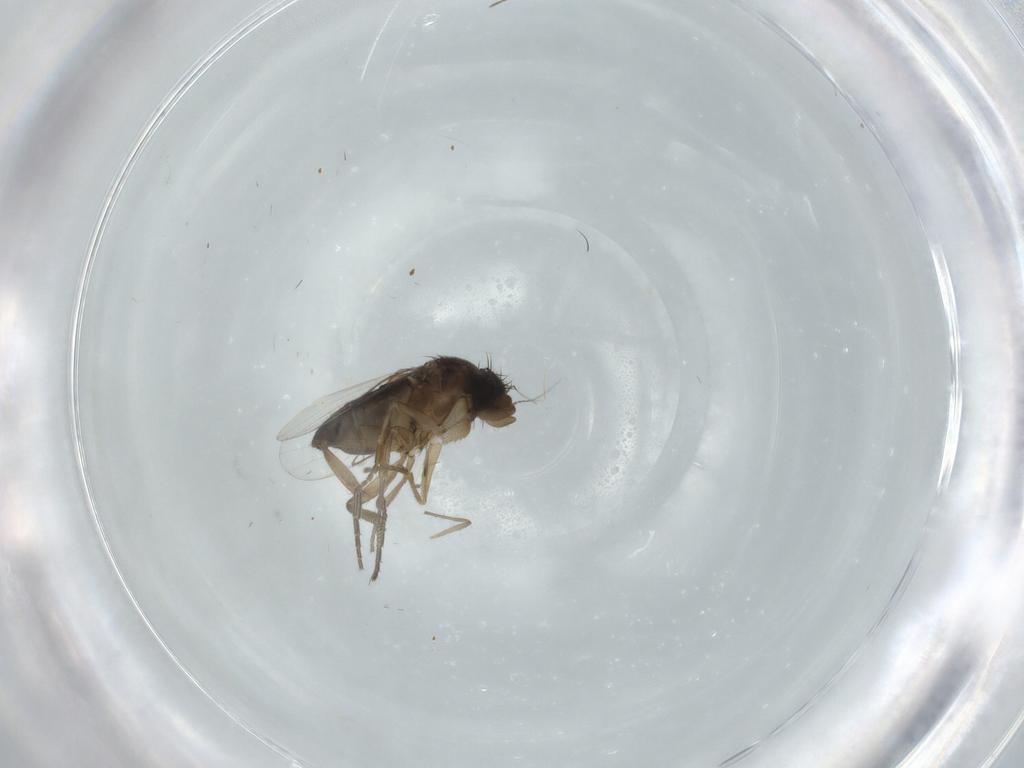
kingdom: Animalia
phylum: Arthropoda
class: Insecta
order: Diptera
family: Phoridae
